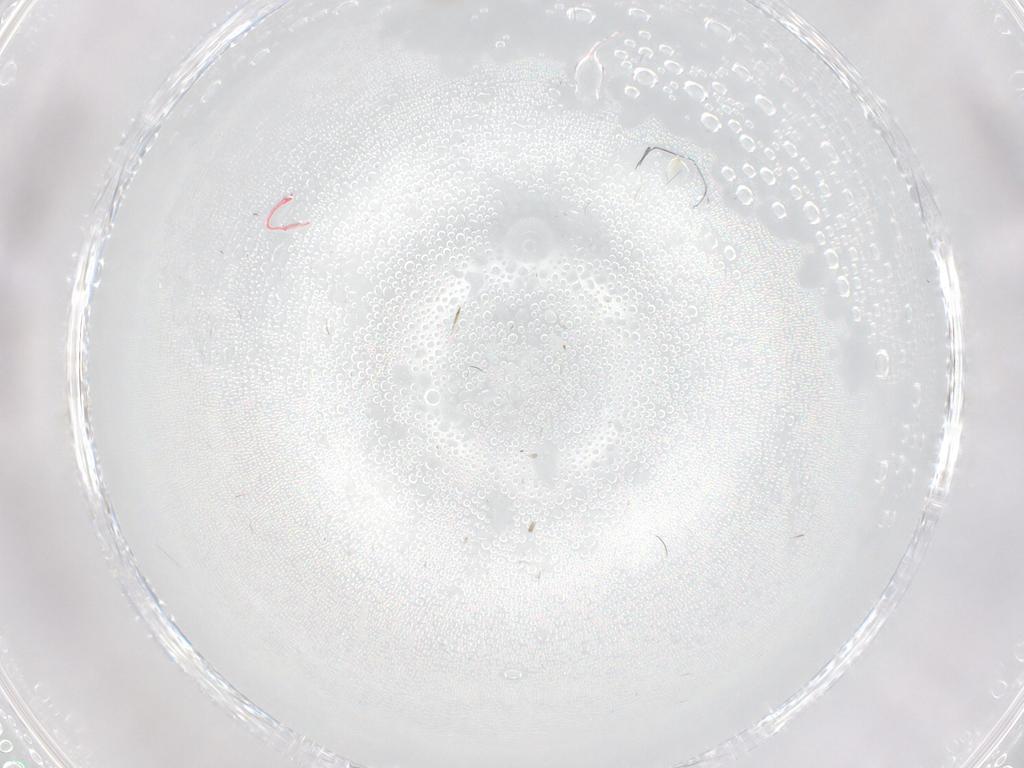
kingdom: Animalia
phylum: Arthropoda
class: Insecta
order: Diptera
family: Cecidomyiidae
